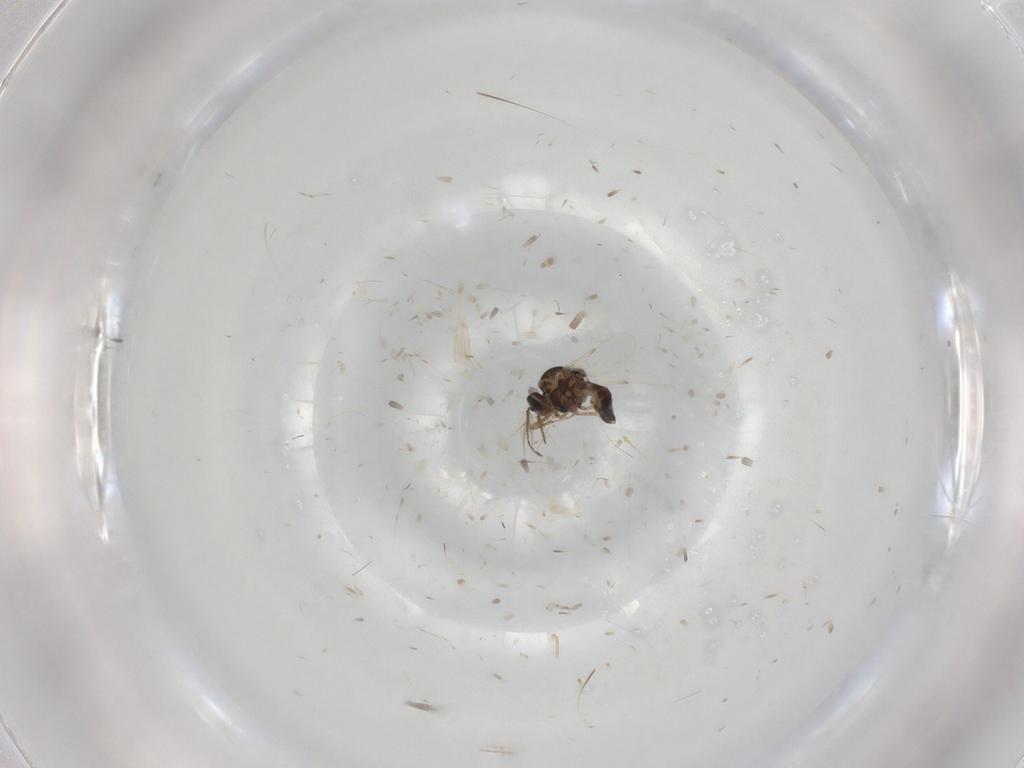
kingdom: Animalia
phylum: Arthropoda
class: Insecta
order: Diptera
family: Ceratopogonidae
